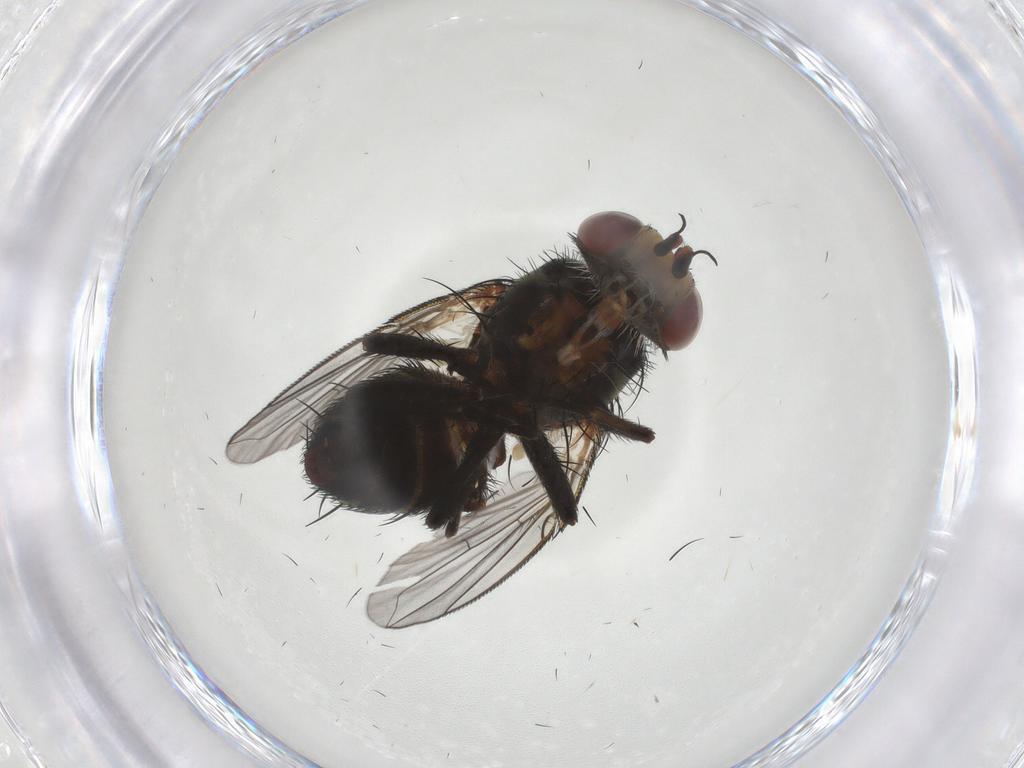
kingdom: Animalia
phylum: Arthropoda
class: Insecta
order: Diptera
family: Tachinidae
